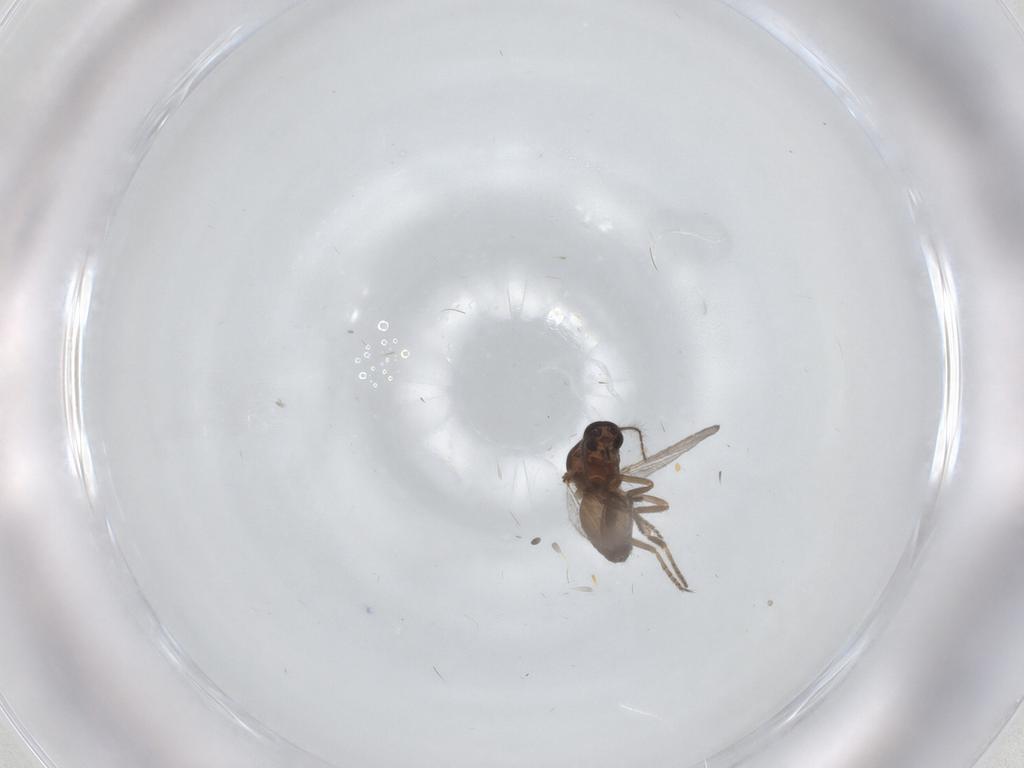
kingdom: Animalia
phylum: Arthropoda
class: Insecta
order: Diptera
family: Ceratopogonidae
